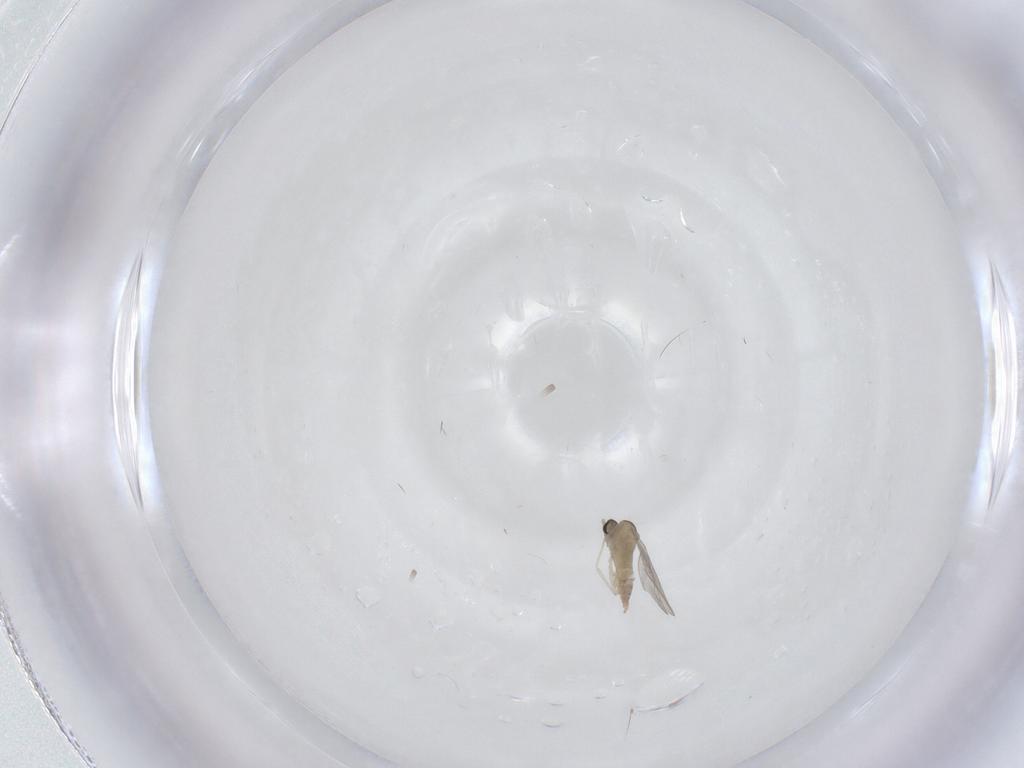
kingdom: Animalia
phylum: Arthropoda
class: Insecta
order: Diptera
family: Cecidomyiidae
